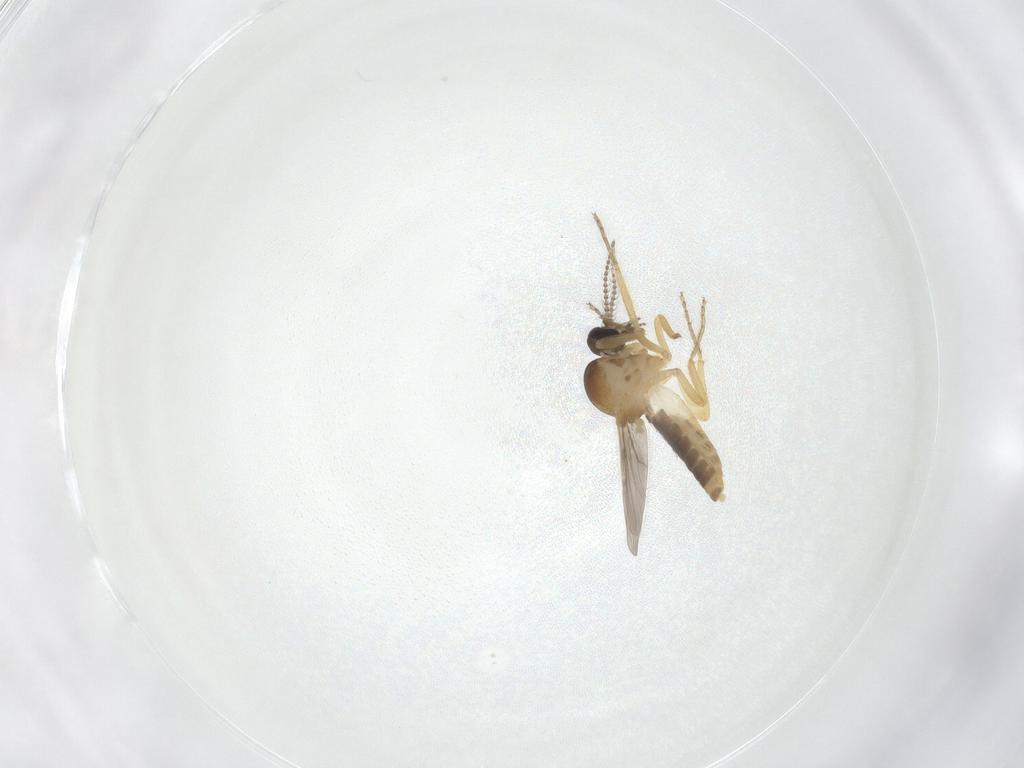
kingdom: Animalia
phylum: Arthropoda
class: Insecta
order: Diptera
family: Ceratopogonidae
